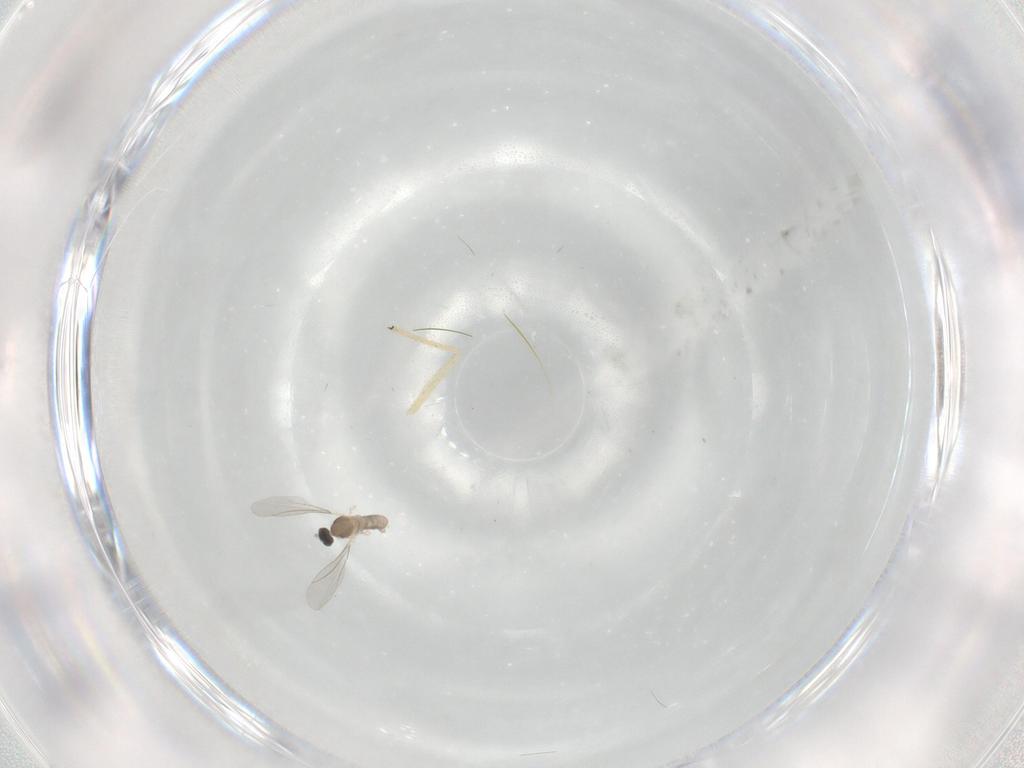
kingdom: Animalia
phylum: Arthropoda
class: Insecta
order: Diptera
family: Cecidomyiidae
